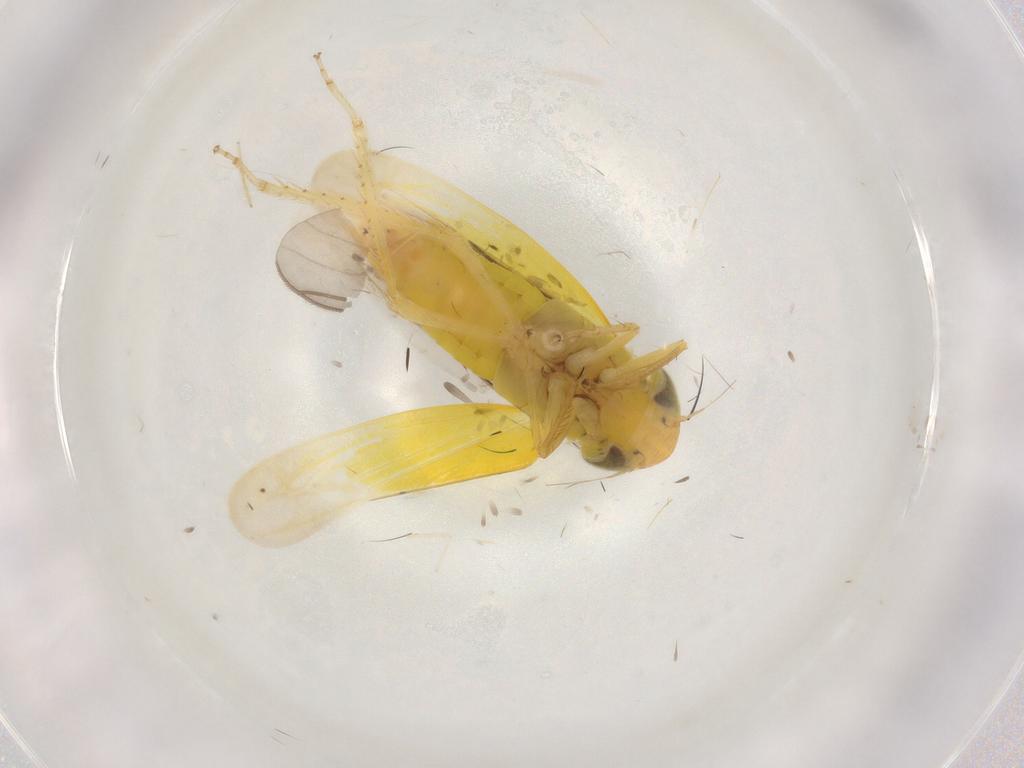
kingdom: Animalia
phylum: Arthropoda
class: Insecta
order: Hemiptera
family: Cicadellidae
